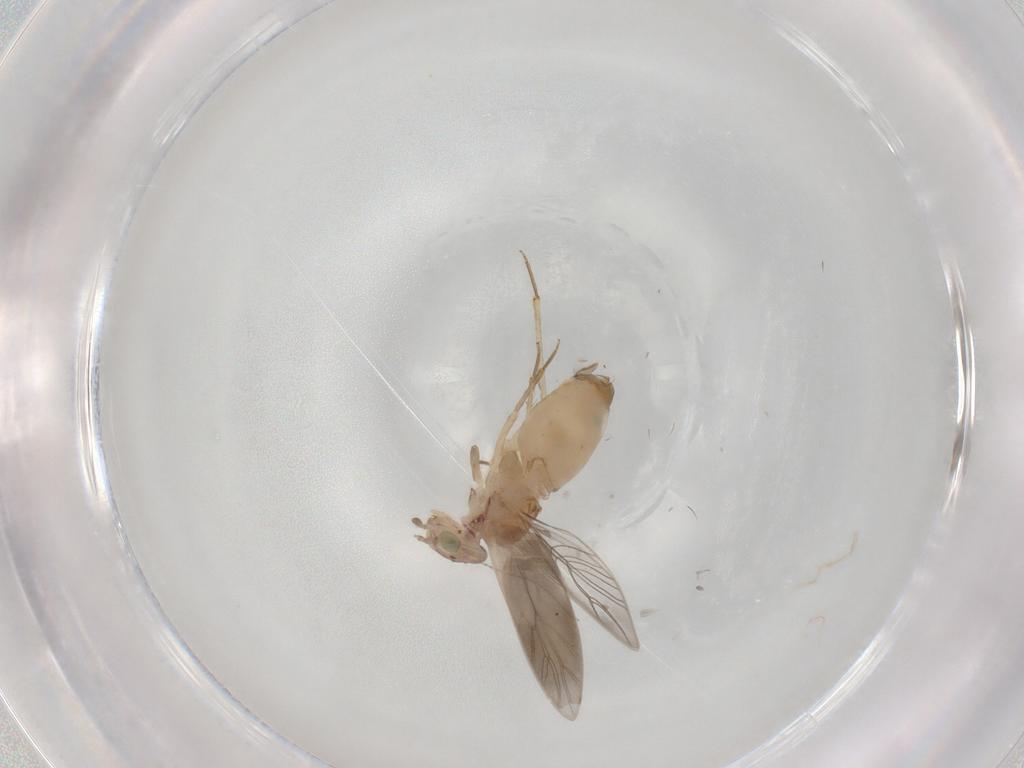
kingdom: Animalia
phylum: Arthropoda
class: Insecta
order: Psocodea
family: Lepidopsocidae
